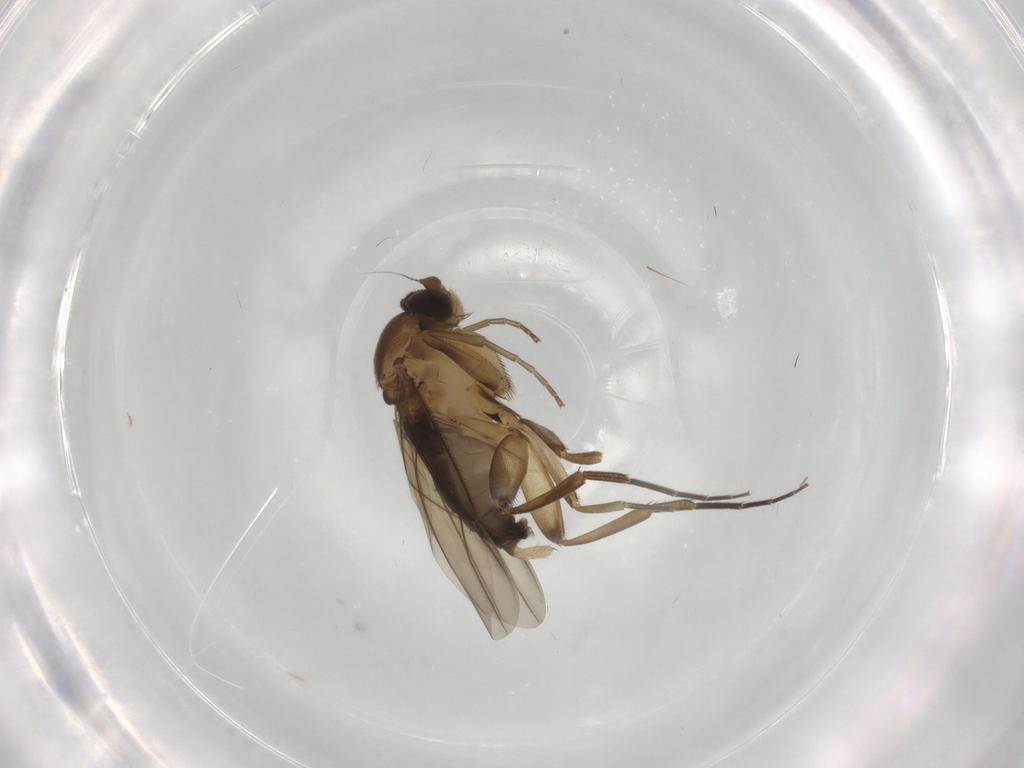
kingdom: Animalia
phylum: Arthropoda
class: Insecta
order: Diptera
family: Phoridae
